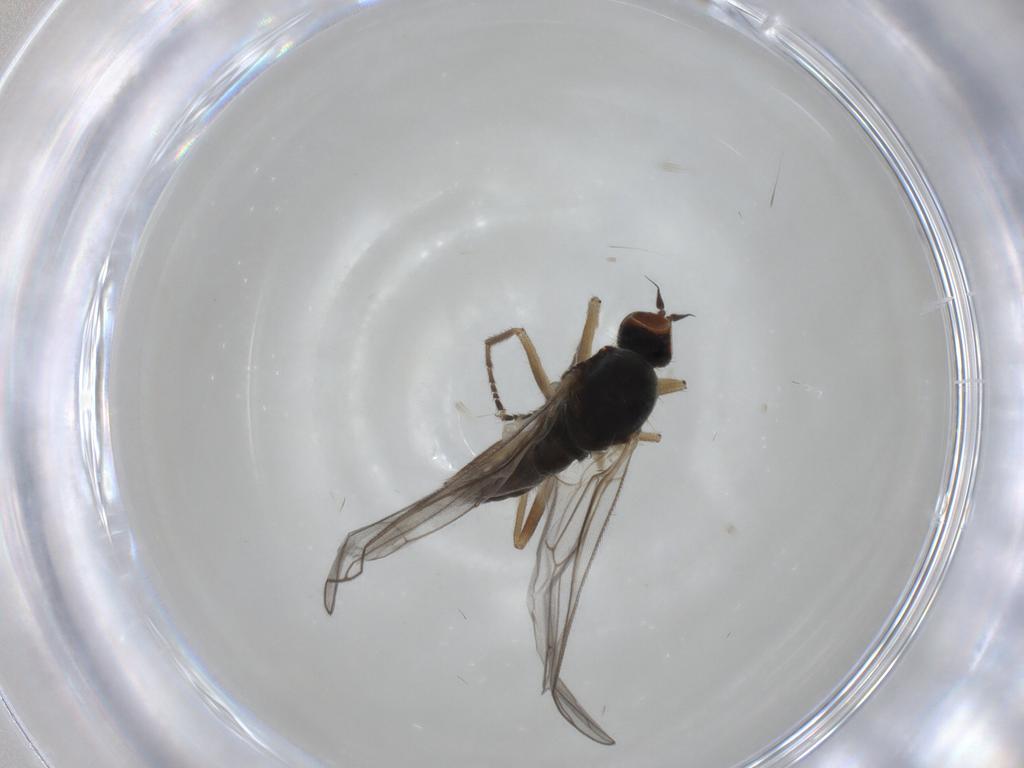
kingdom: Animalia
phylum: Arthropoda
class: Insecta
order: Diptera
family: Hybotidae
